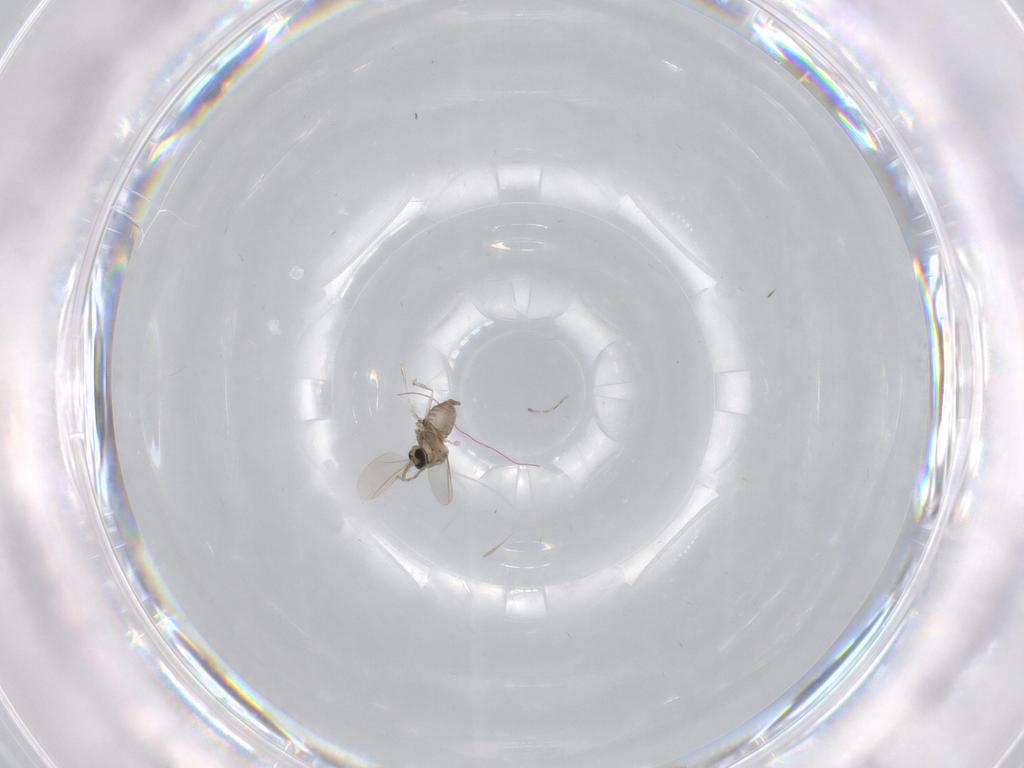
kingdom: Animalia
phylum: Arthropoda
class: Insecta
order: Diptera
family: Cecidomyiidae
